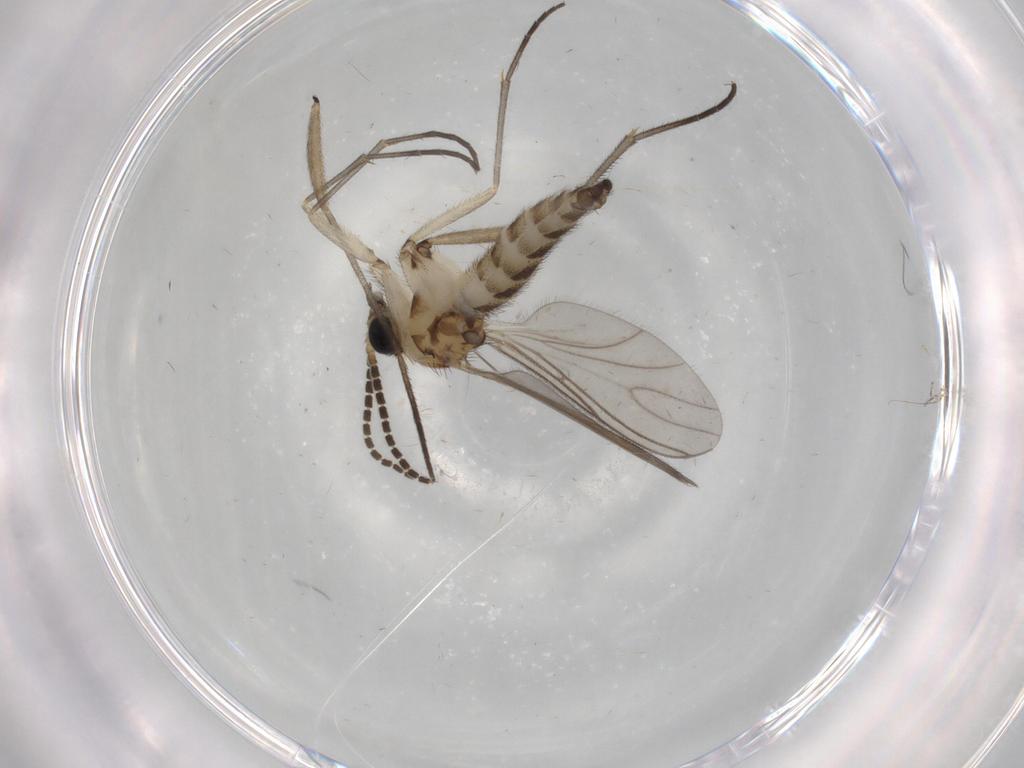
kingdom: Animalia
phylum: Arthropoda
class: Insecta
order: Diptera
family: Sciaridae
